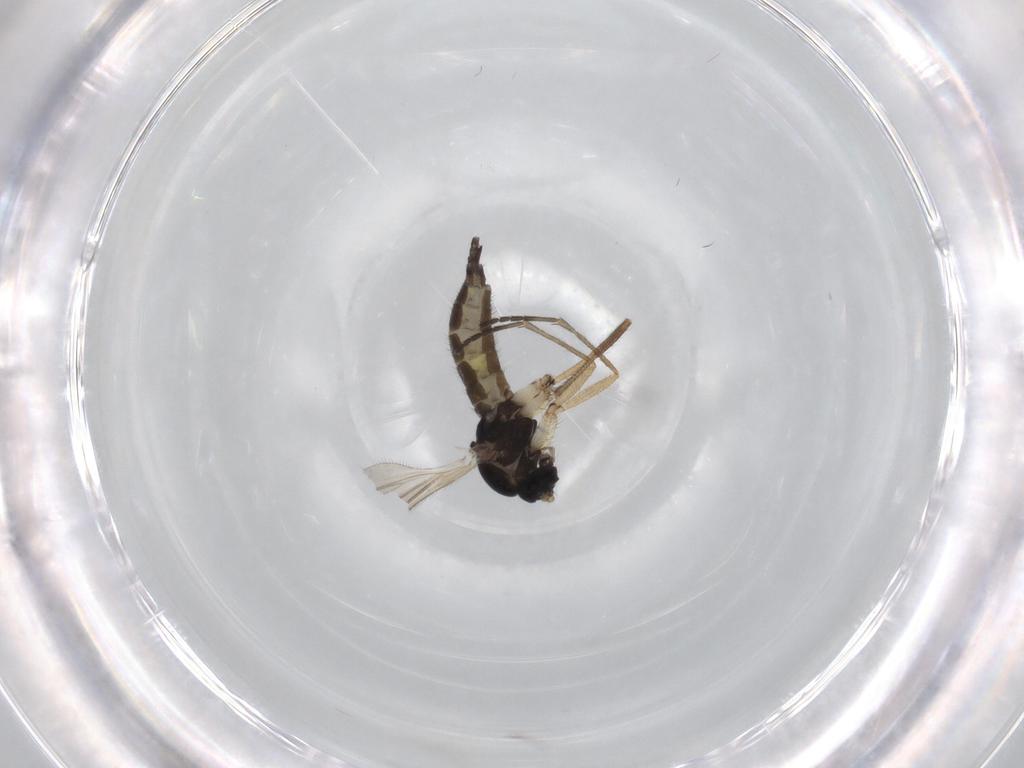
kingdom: Animalia
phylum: Arthropoda
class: Insecta
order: Diptera
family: Sciaridae
